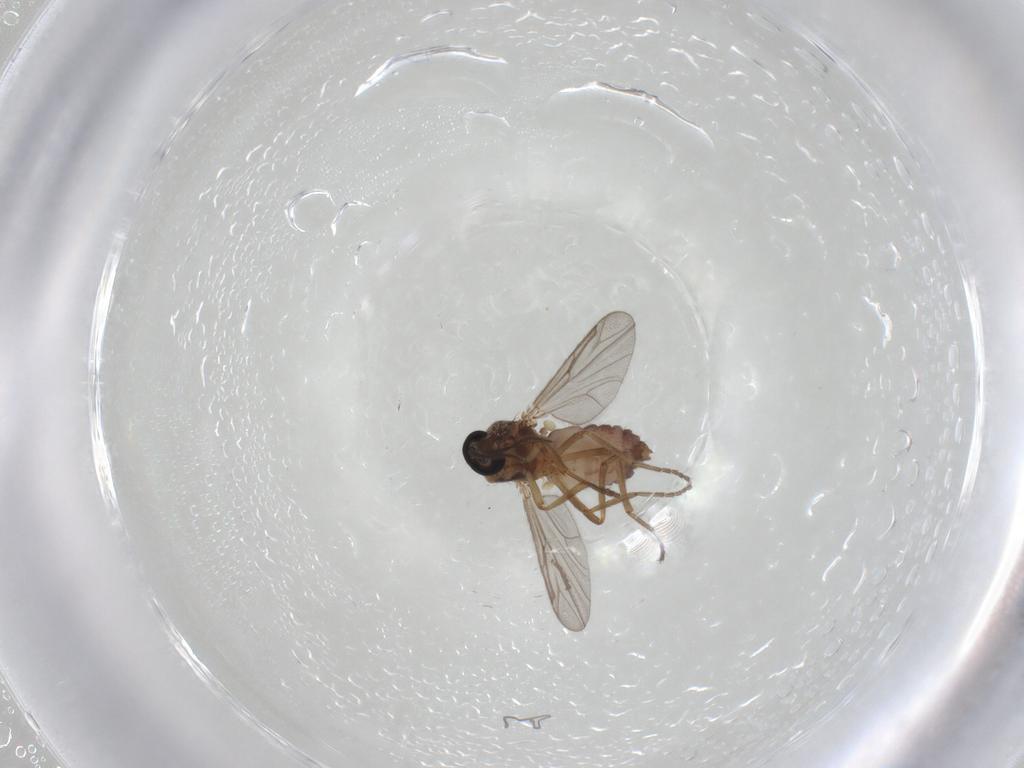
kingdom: Animalia
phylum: Arthropoda
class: Insecta
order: Diptera
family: Ceratopogonidae
